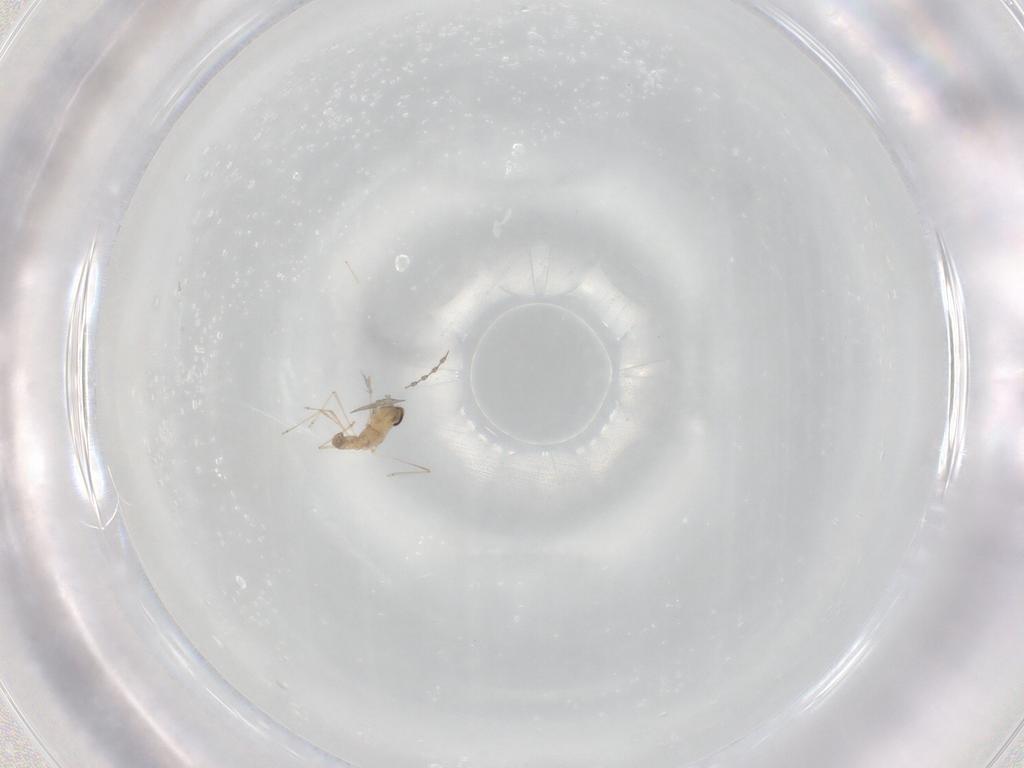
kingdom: Animalia
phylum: Arthropoda
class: Insecta
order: Diptera
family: Cecidomyiidae
